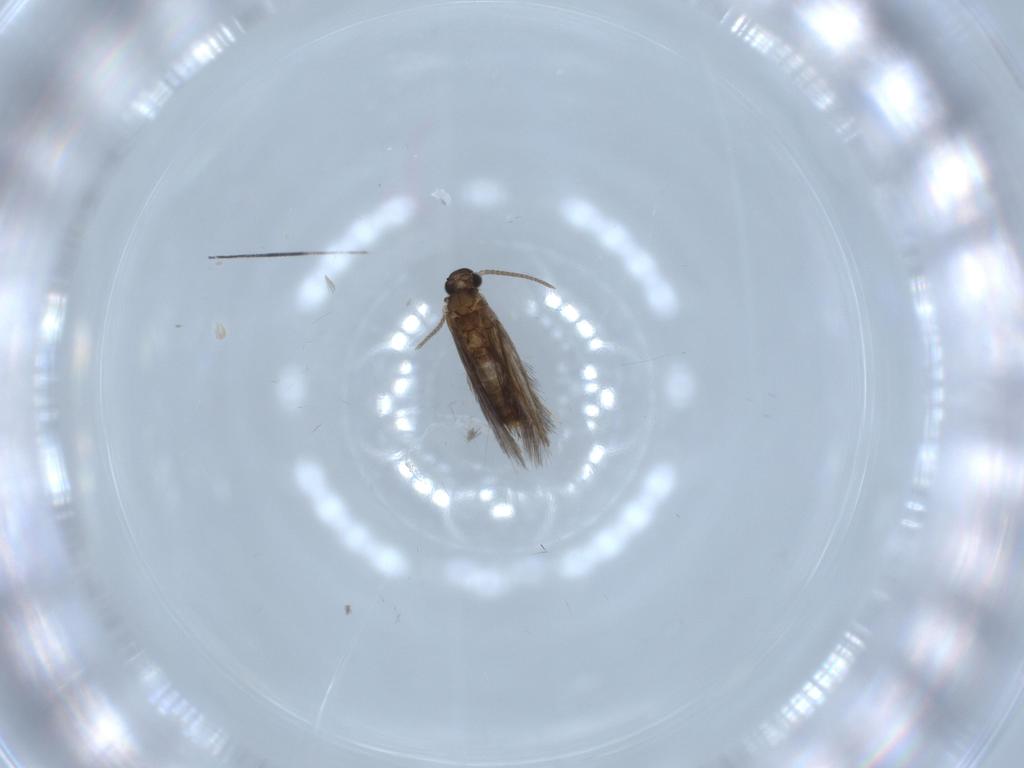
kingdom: Animalia
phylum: Arthropoda
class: Insecta
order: Trichoptera
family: Hydroptilidae
